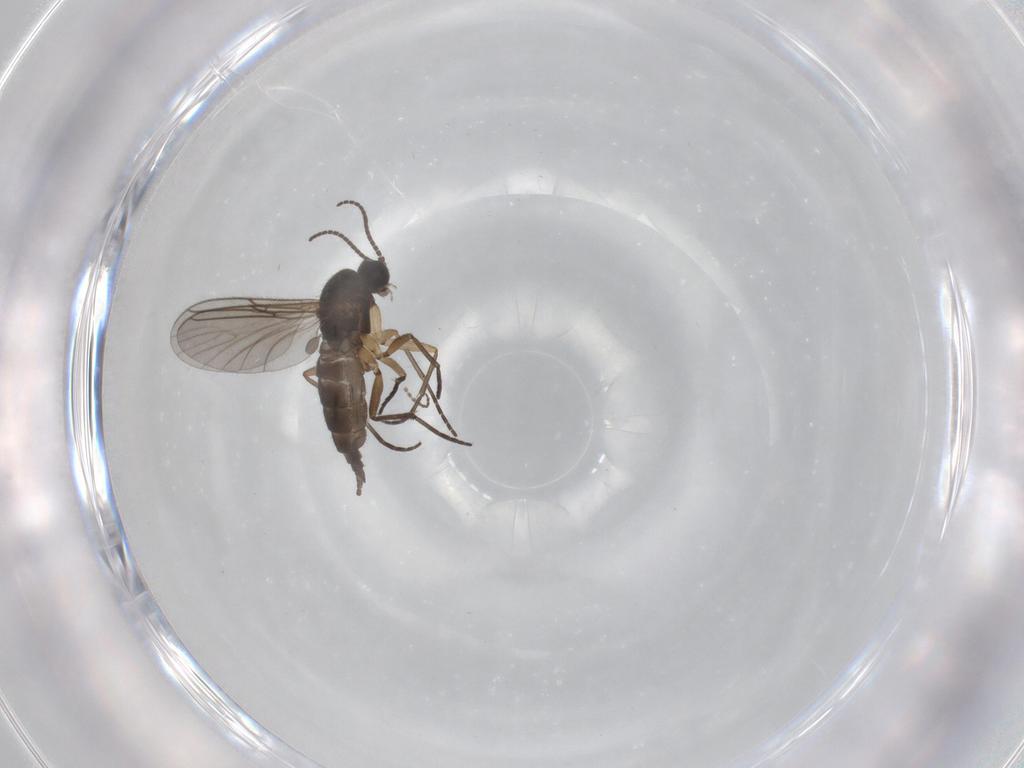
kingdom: Animalia
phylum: Arthropoda
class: Insecta
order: Diptera
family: Sciaridae
